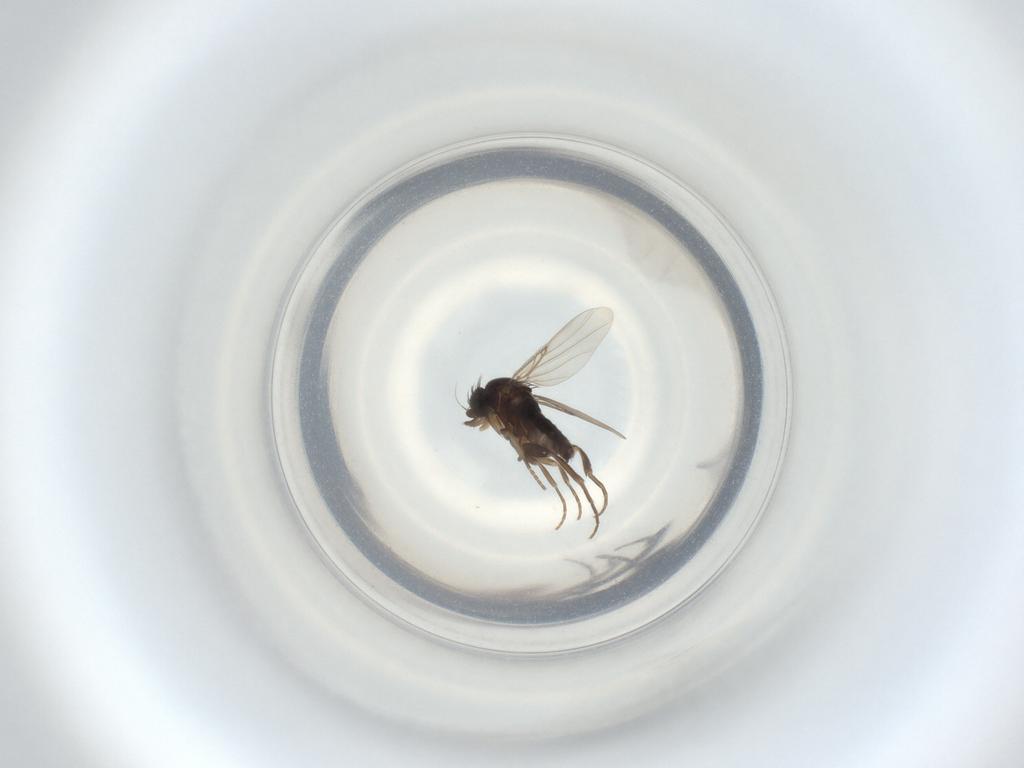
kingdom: Animalia
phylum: Arthropoda
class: Insecta
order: Diptera
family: Phoridae
